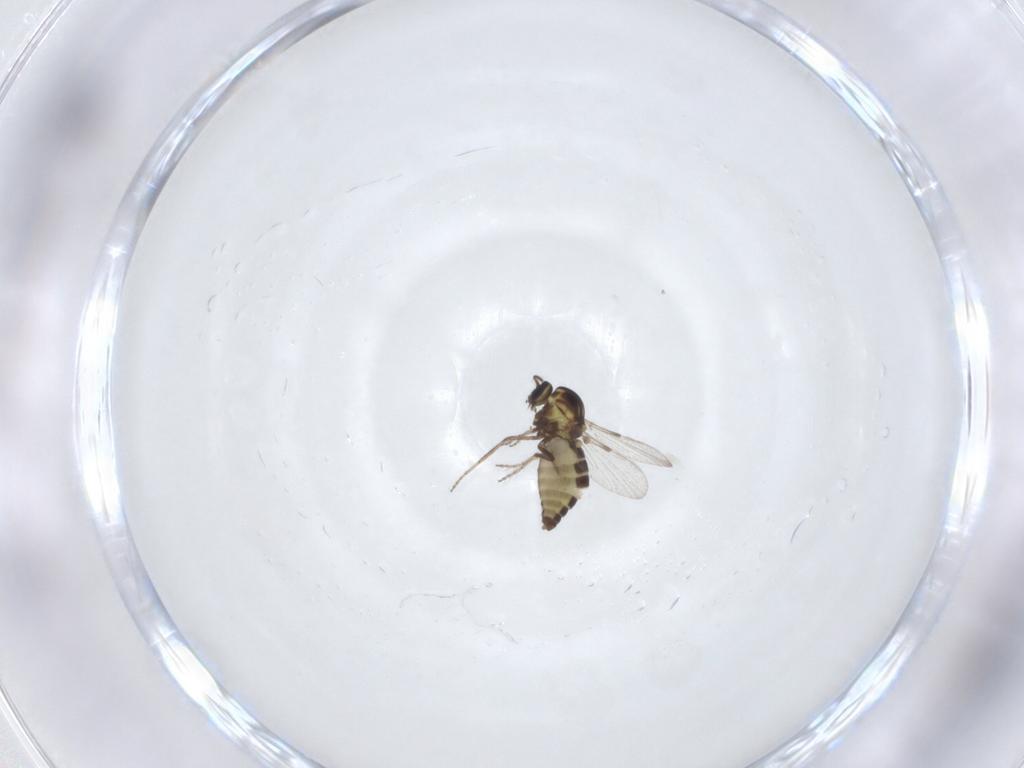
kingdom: Animalia
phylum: Arthropoda
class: Insecta
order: Diptera
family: Ceratopogonidae
